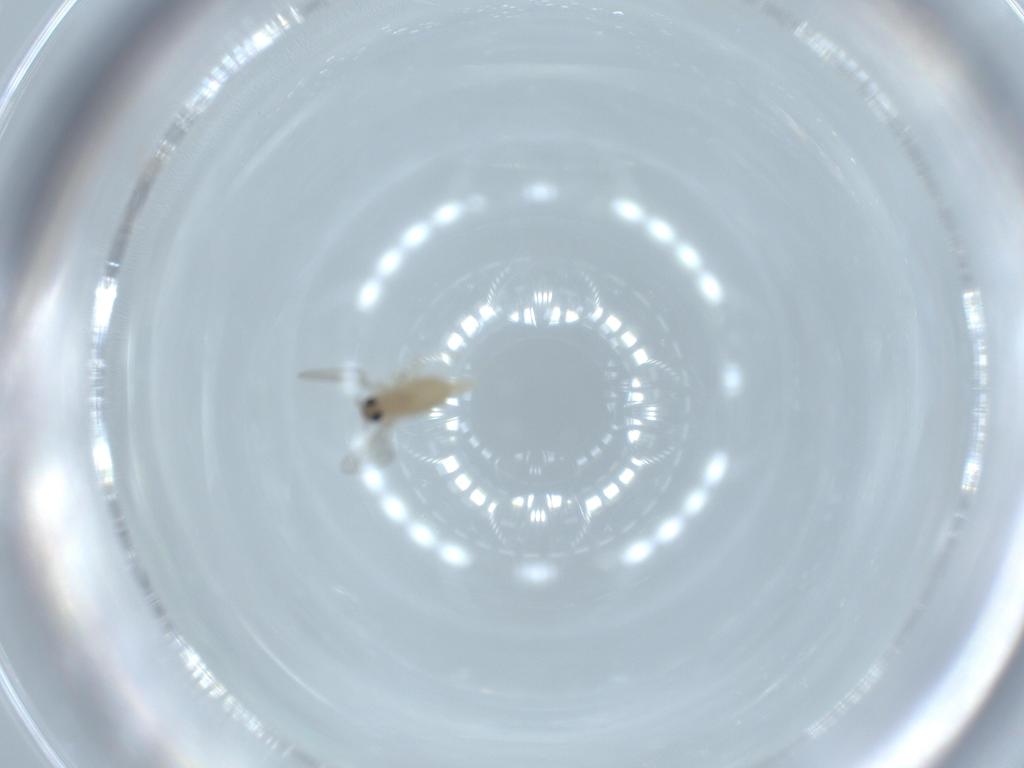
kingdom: Animalia
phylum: Arthropoda
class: Insecta
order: Diptera
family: Cecidomyiidae
